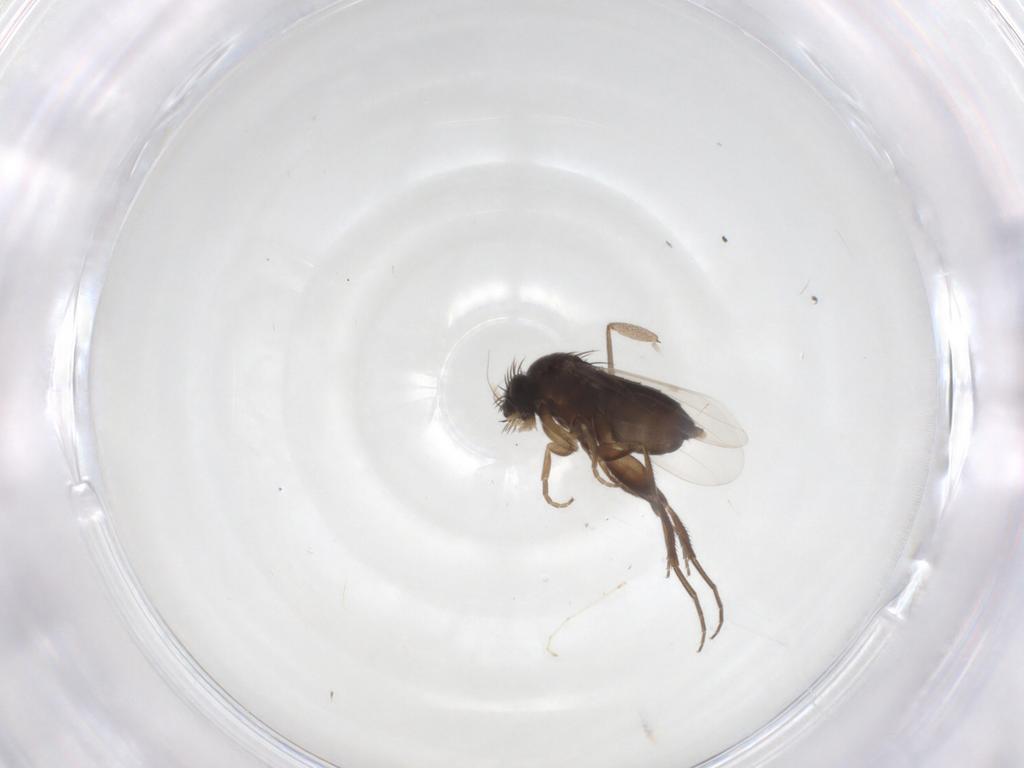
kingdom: Animalia
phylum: Arthropoda
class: Insecta
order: Diptera
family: Phoridae
